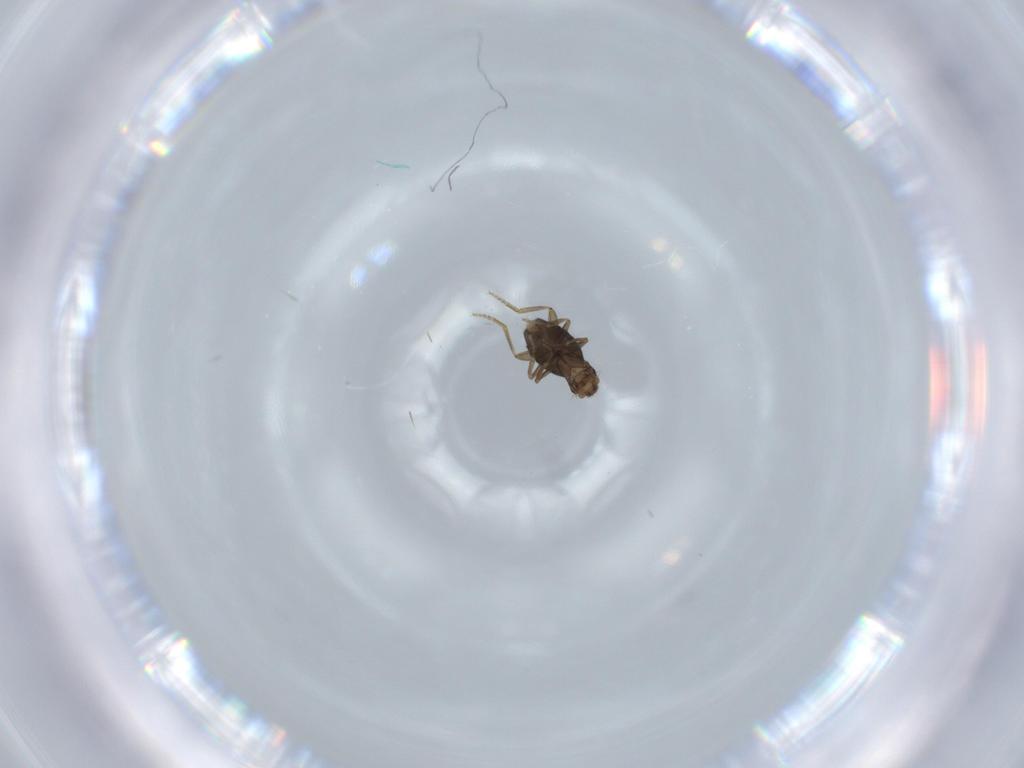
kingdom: Animalia
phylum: Arthropoda
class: Insecta
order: Diptera
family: Phoridae
